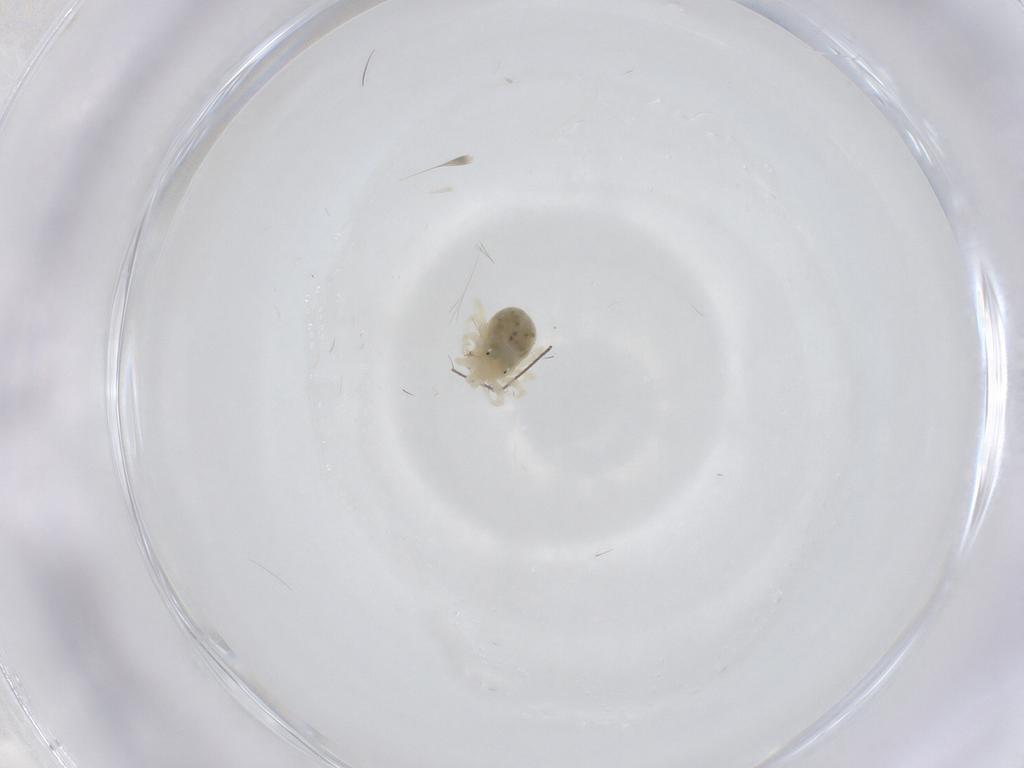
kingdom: Animalia
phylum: Arthropoda
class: Arachnida
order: Trombidiformes
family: Anystidae
